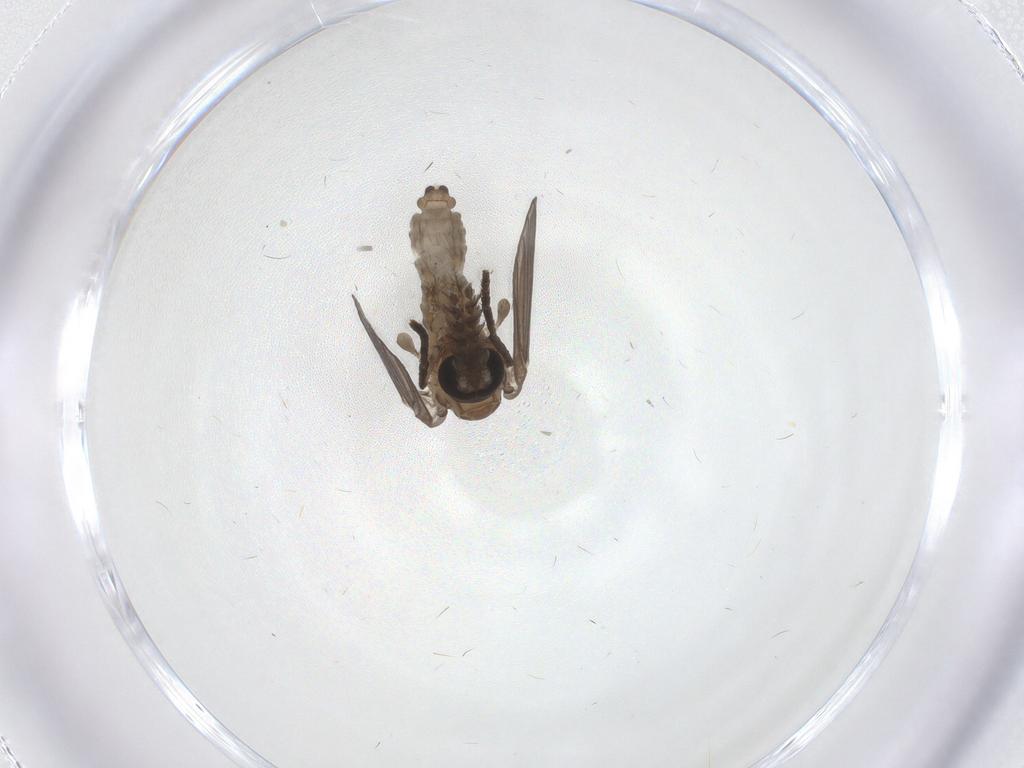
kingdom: Animalia
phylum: Arthropoda
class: Insecta
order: Diptera
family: Psychodidae
